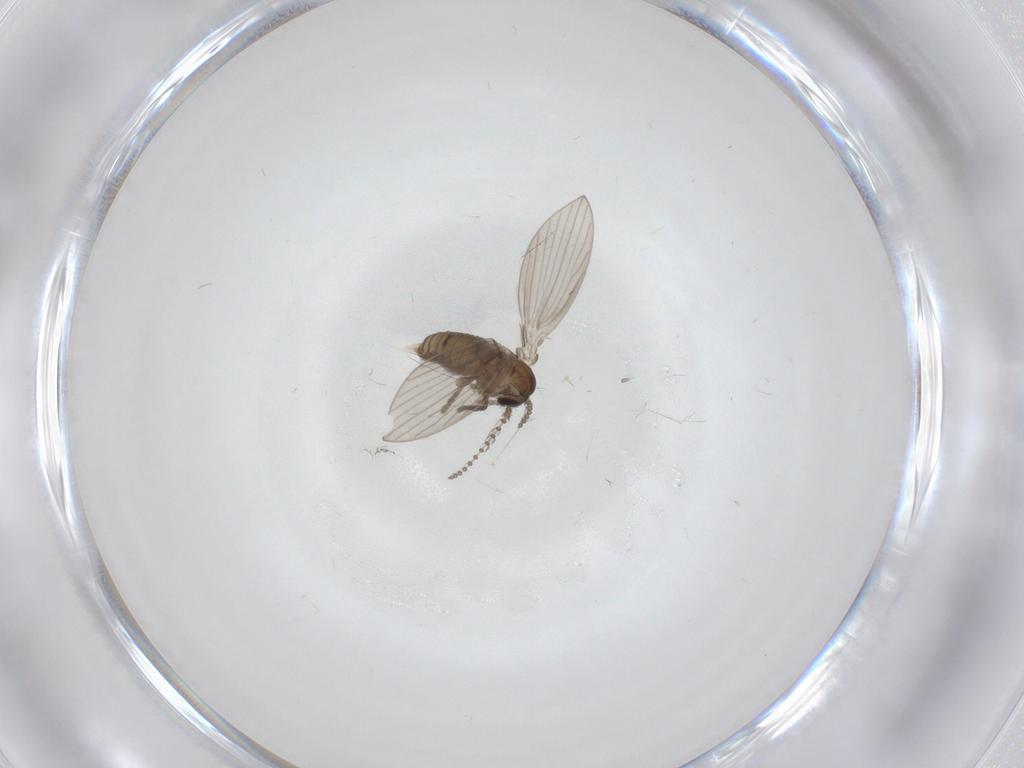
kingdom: Animalia
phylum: Arthropoda
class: Insecta
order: Diptera
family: Psychodidae
